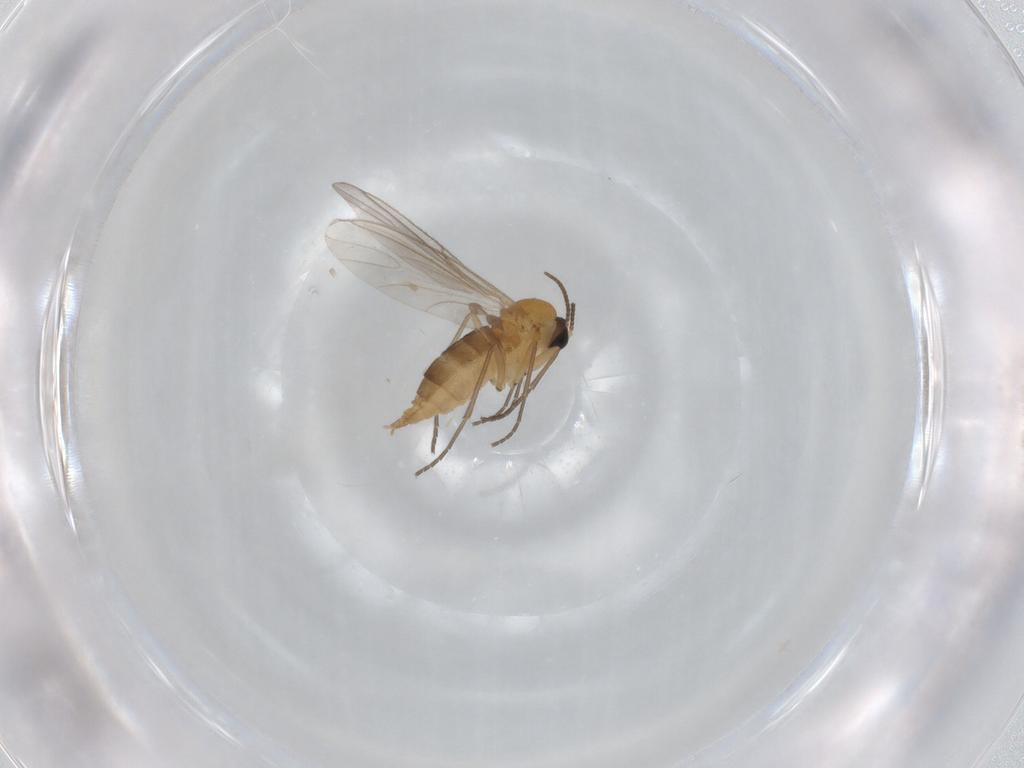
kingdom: Animalia
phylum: Arthropoda
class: Insecta
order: Diptera
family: Sciaridae
